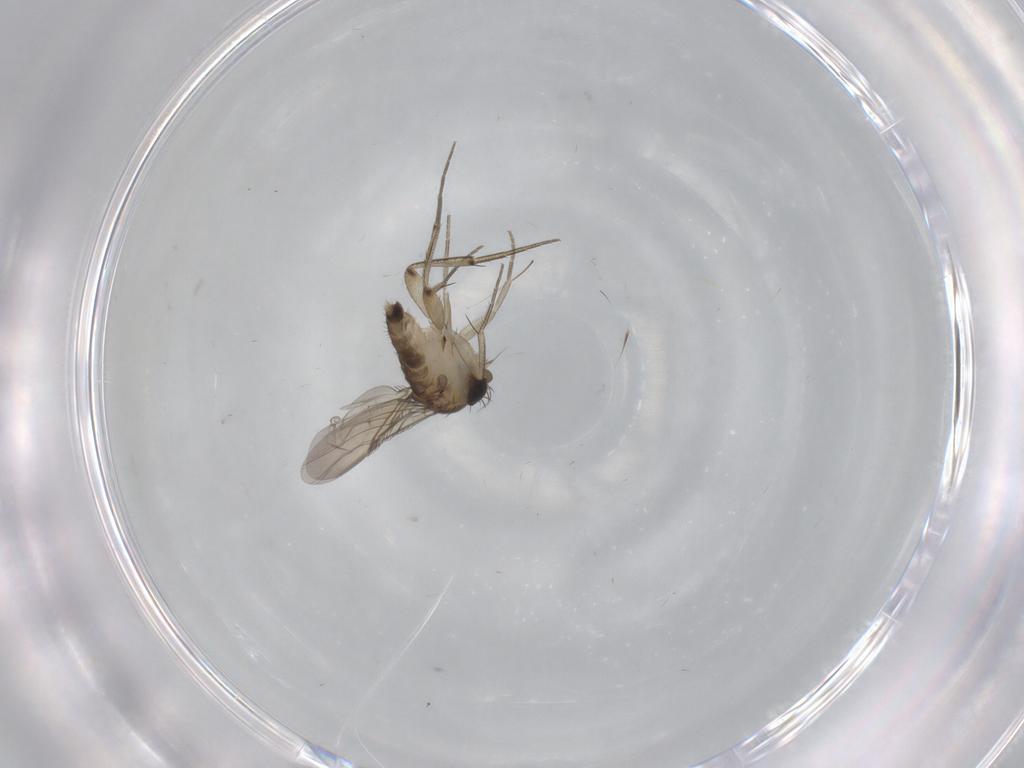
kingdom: Animalia
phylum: Arthropoda
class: Insecta
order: Diptera
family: Phoridae
